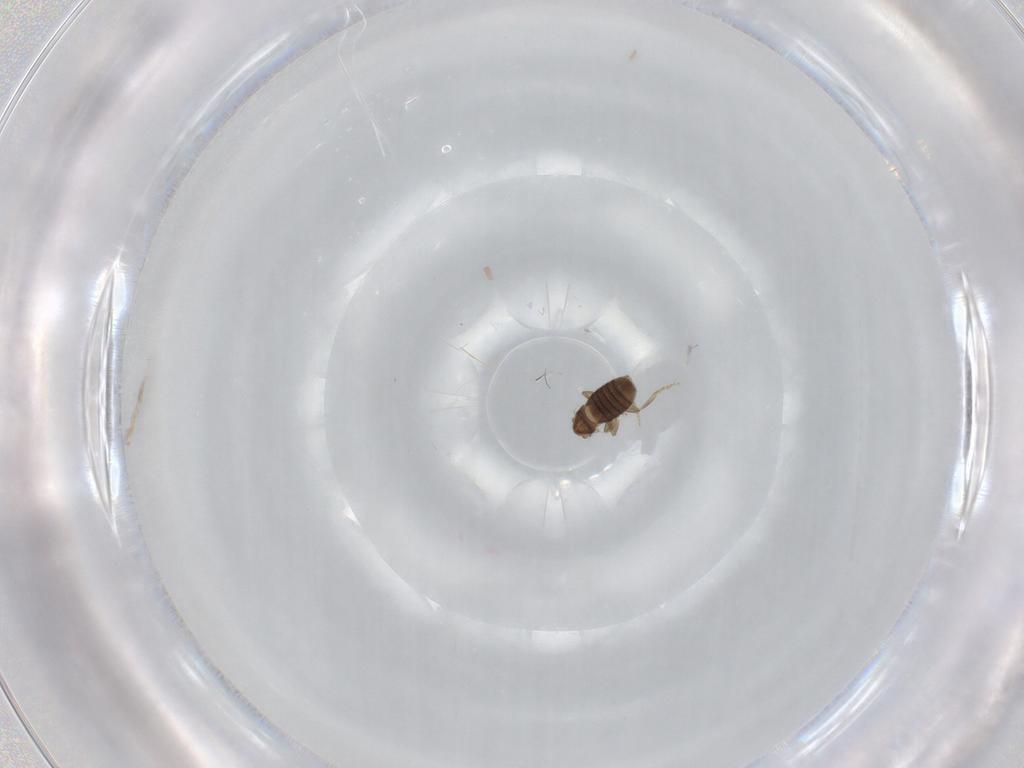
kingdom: Animalia
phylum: Arthropoda
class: Insecta
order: Diptera
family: Sciaridae
